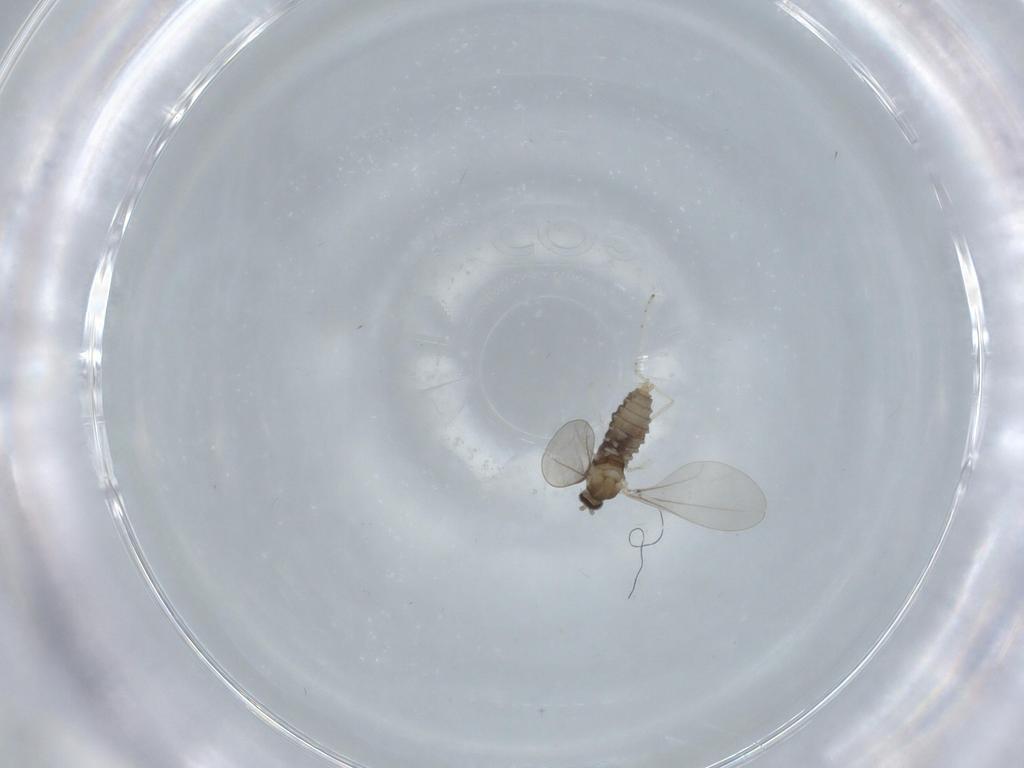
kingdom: Animalia
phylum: Arthropoda
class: Insecta
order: Diptera
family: Cecidomyiidae
